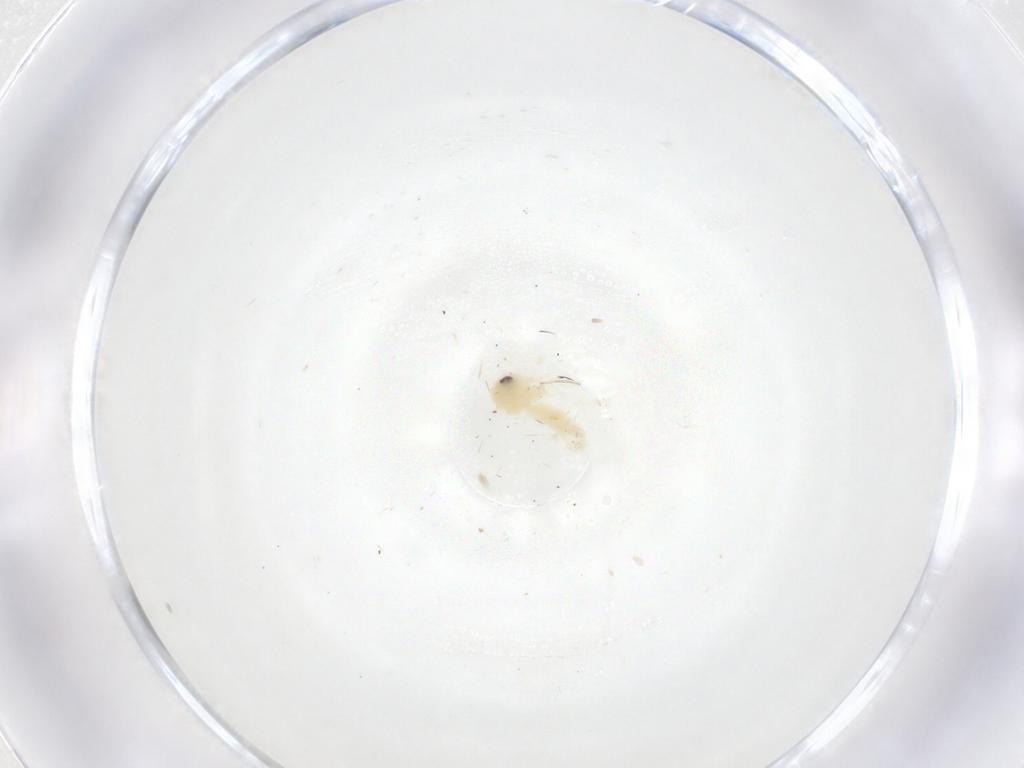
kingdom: Animalia
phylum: Arthropoda
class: Insecta
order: Hemiptera
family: Aleyrodidae
